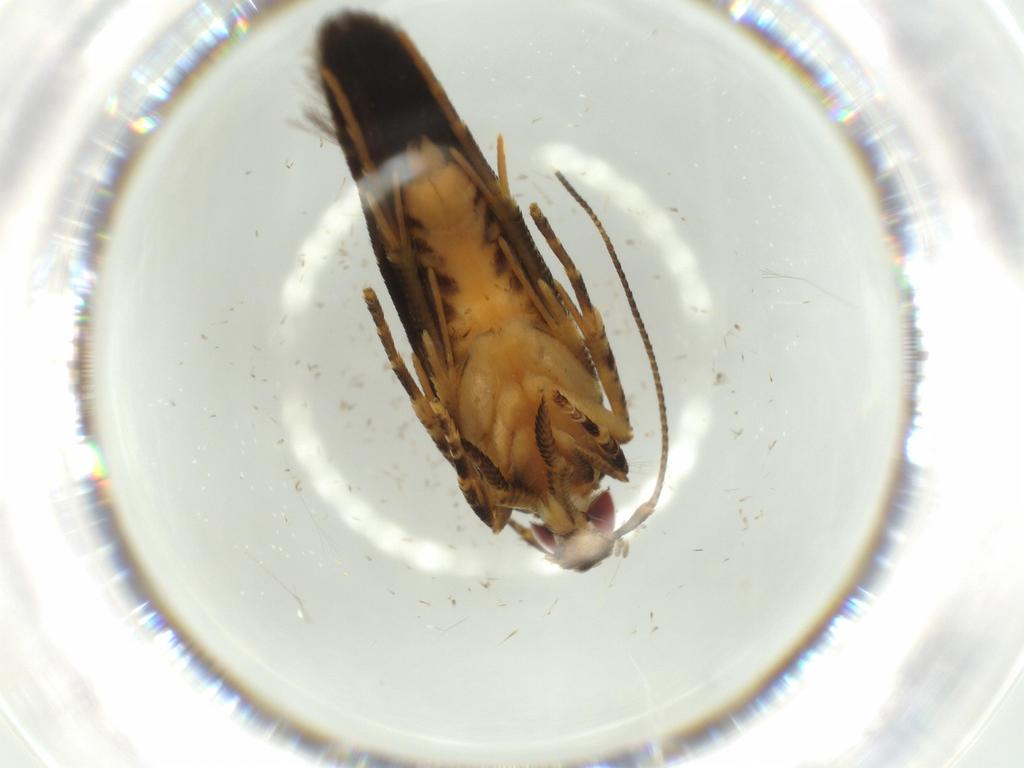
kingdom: Animalia
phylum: Arthropoda
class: Insecta
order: Lepidoptera
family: Cosmopterigidae
